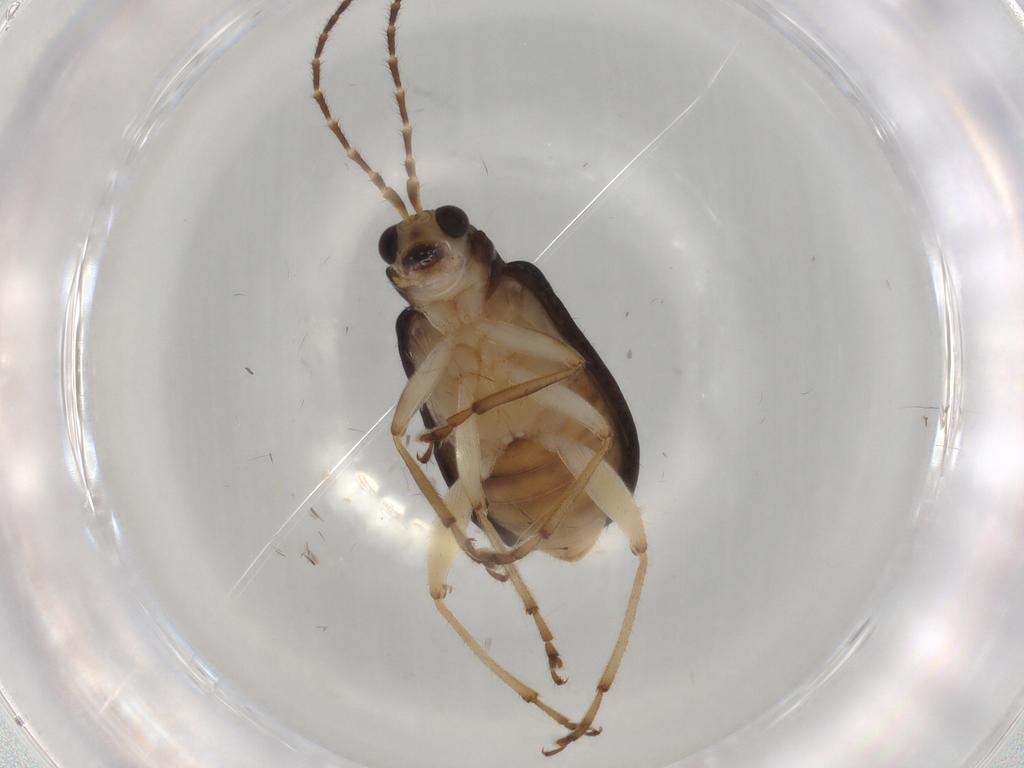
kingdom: Animalia
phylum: Arthropoda
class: Insecta
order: Coleoptera
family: Chrysomelidae
